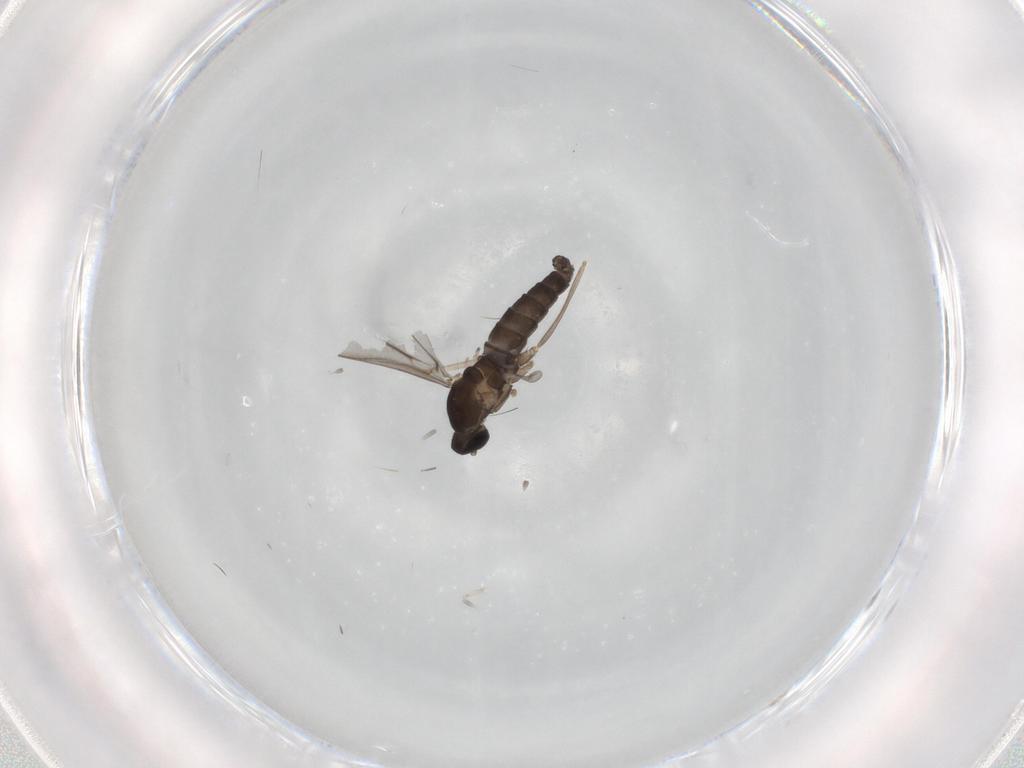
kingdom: Animalia
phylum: Arthropoda
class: Insecta
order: Diptera
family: Cecidomyiidae
